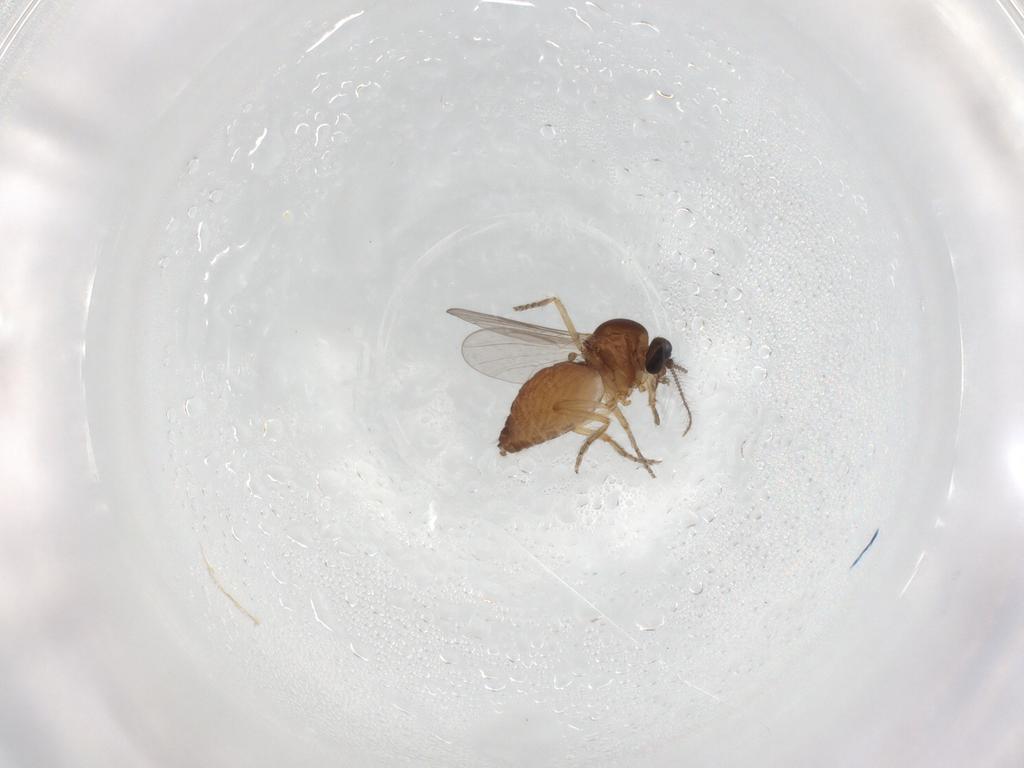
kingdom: Animalia
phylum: Arthropoda
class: Insecta
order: Diptera
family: Ceratopogonidae
